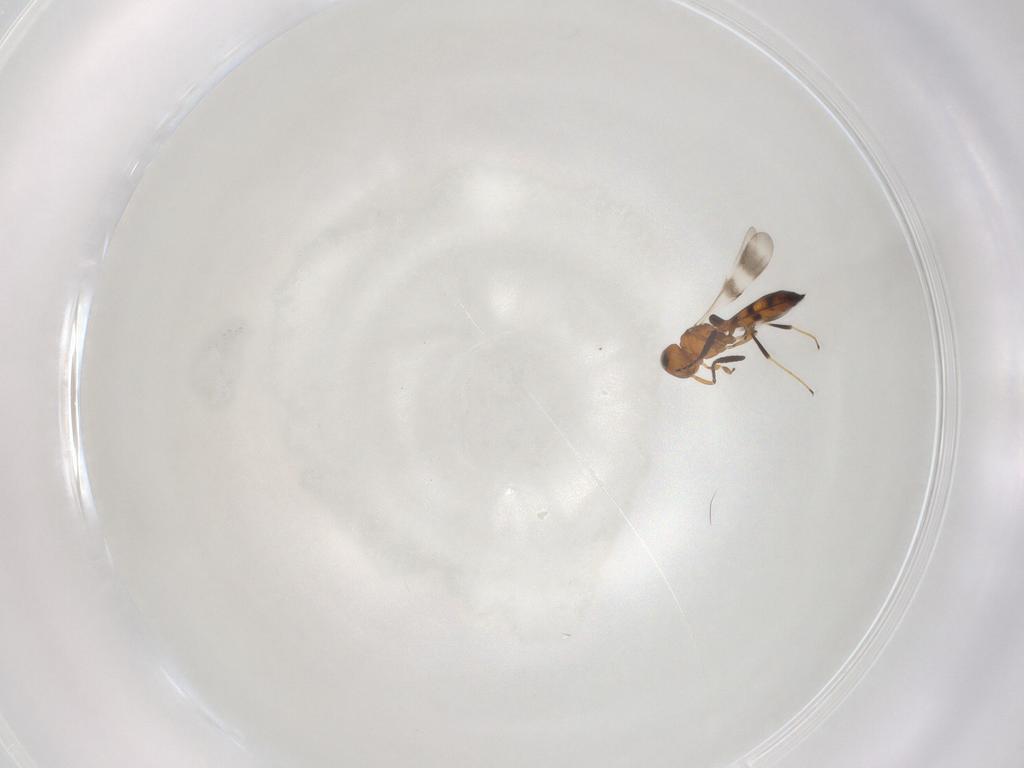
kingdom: Animalia
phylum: Arthropoda
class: Insecta
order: Hymenoptera
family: Scelionidae
